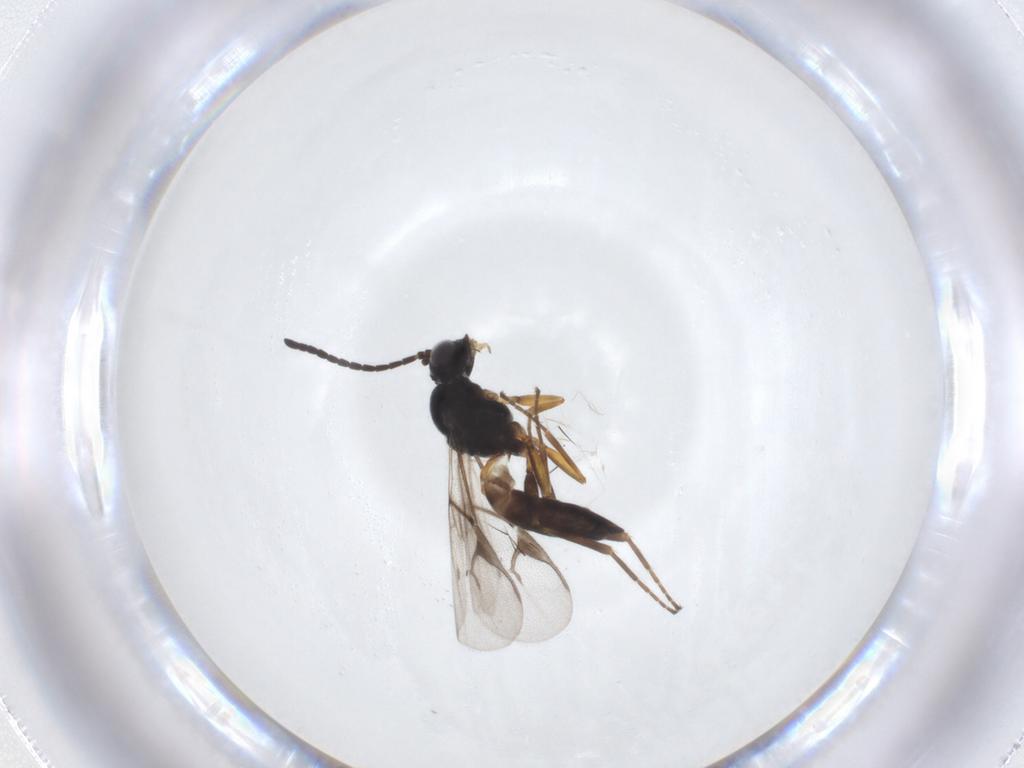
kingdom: Animalia
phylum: Arthropoda
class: Insecta
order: Hymenoptera
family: Braconidae
